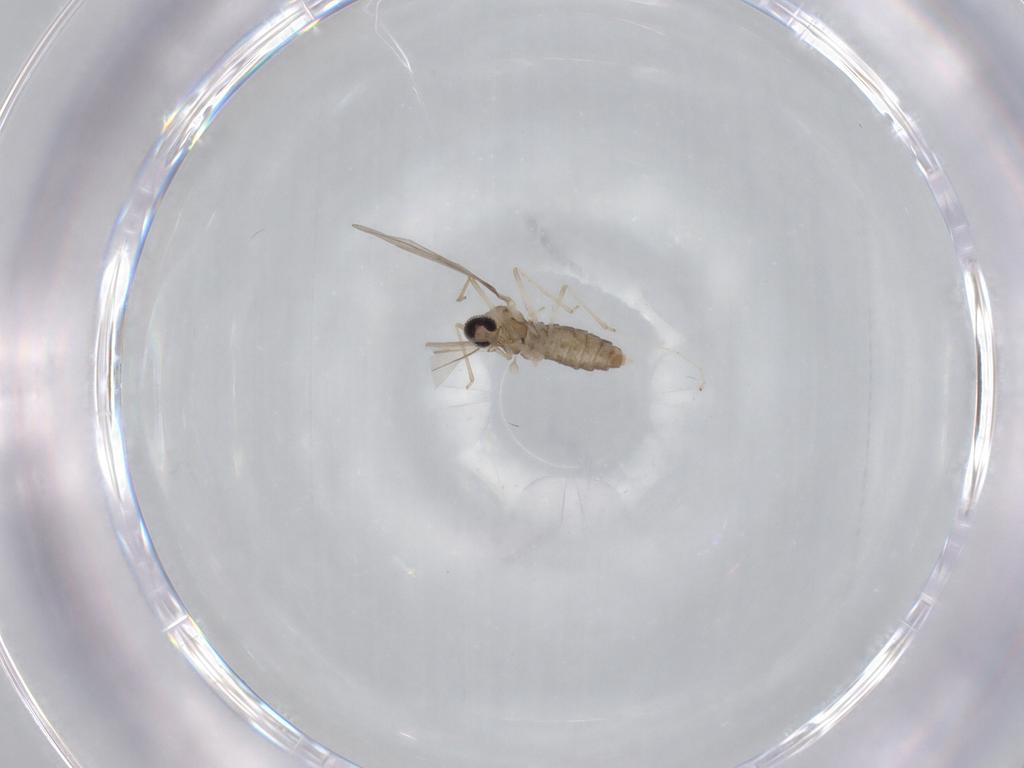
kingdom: Animalia
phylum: Arthropoda
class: Insecta
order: Diptera
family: Cecidomyiidae
